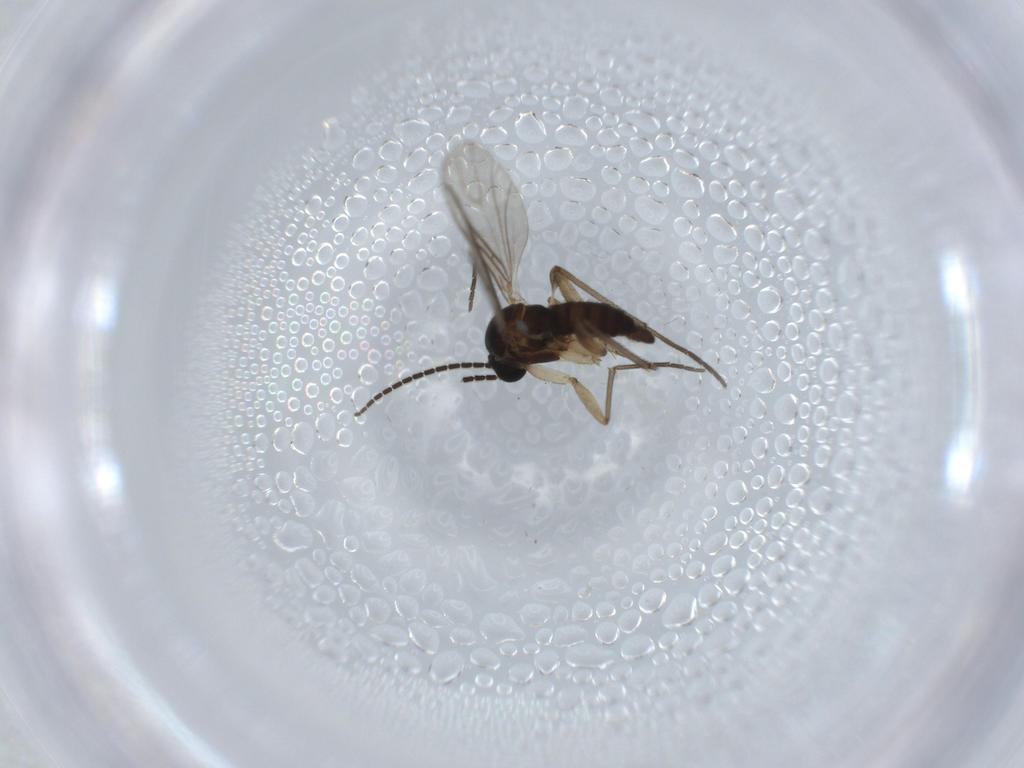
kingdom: Animalia
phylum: Arthropoda
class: Insecta
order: Diptera
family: Sciaridae
